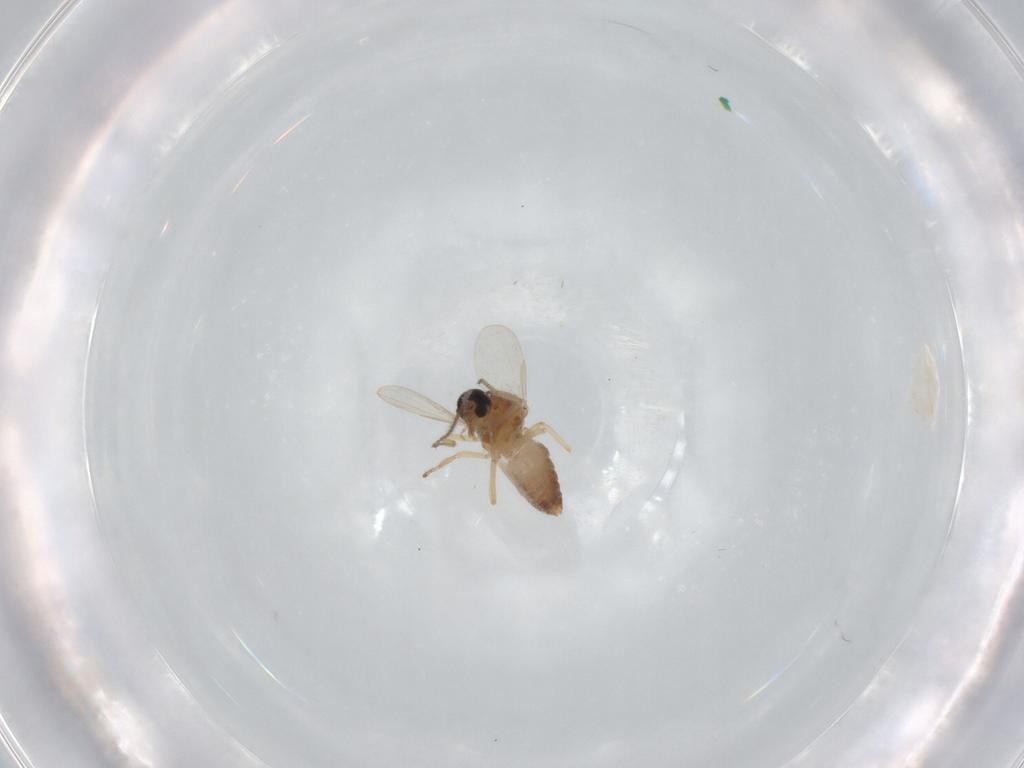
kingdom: Animalia
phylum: Arthropoda
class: Insecta
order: Diptera
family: Ceratopogonidae
